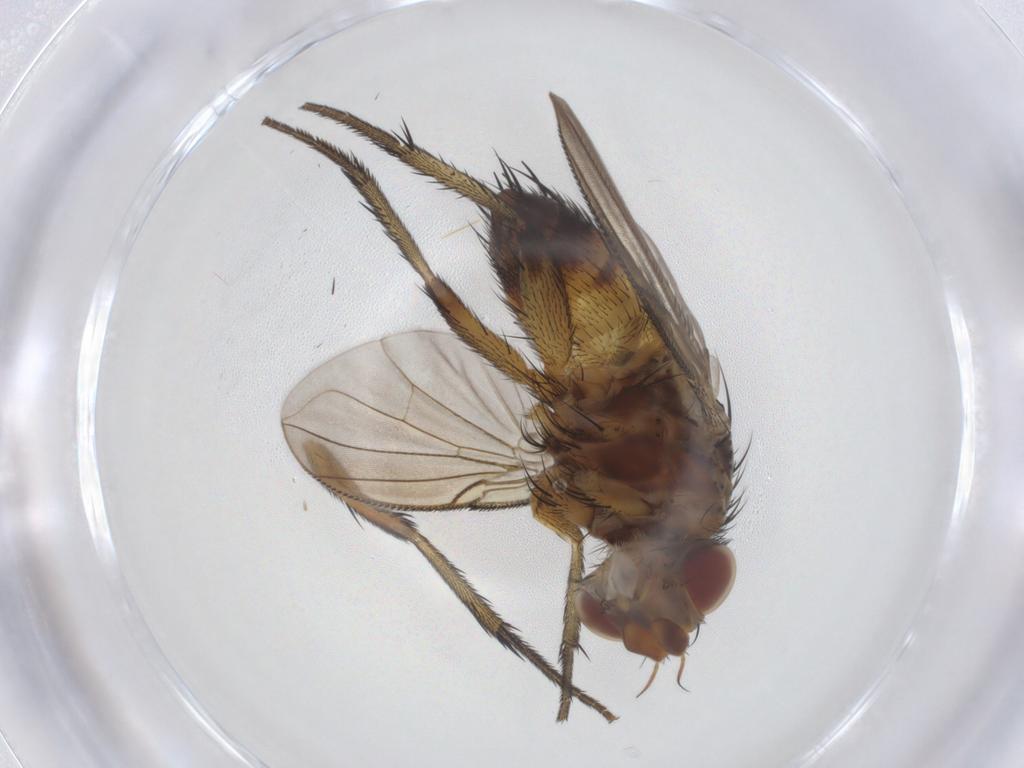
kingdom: Animalia
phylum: Arthropoda
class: Insecta
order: Diptera
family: Tachinidae
